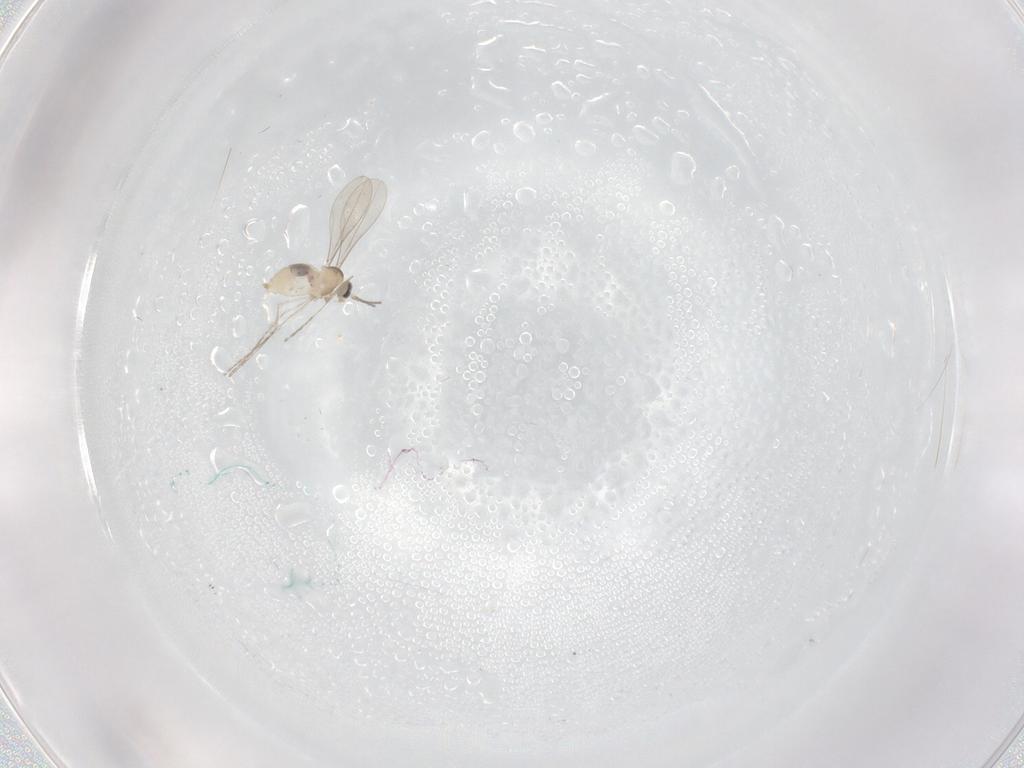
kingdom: Animalia
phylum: Arthropoda
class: Insecta
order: Diptera
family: Cecidomyiidae
